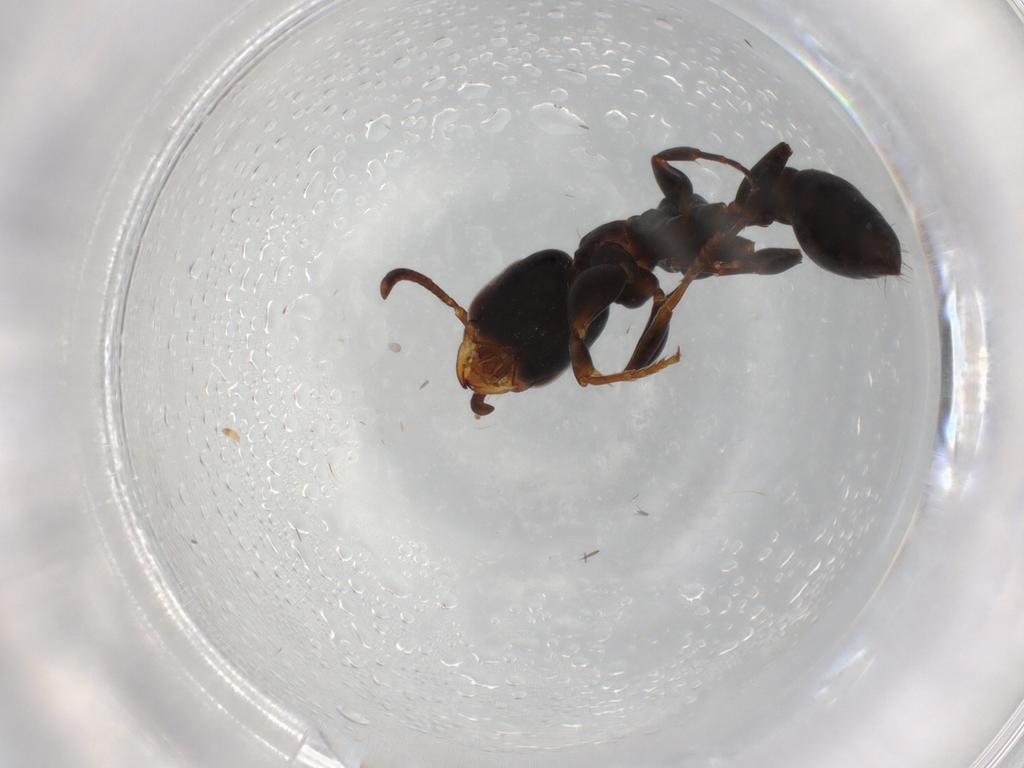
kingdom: Animalia
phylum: Arthropoda
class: Insecta
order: Hymenoptera
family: Formicidae
